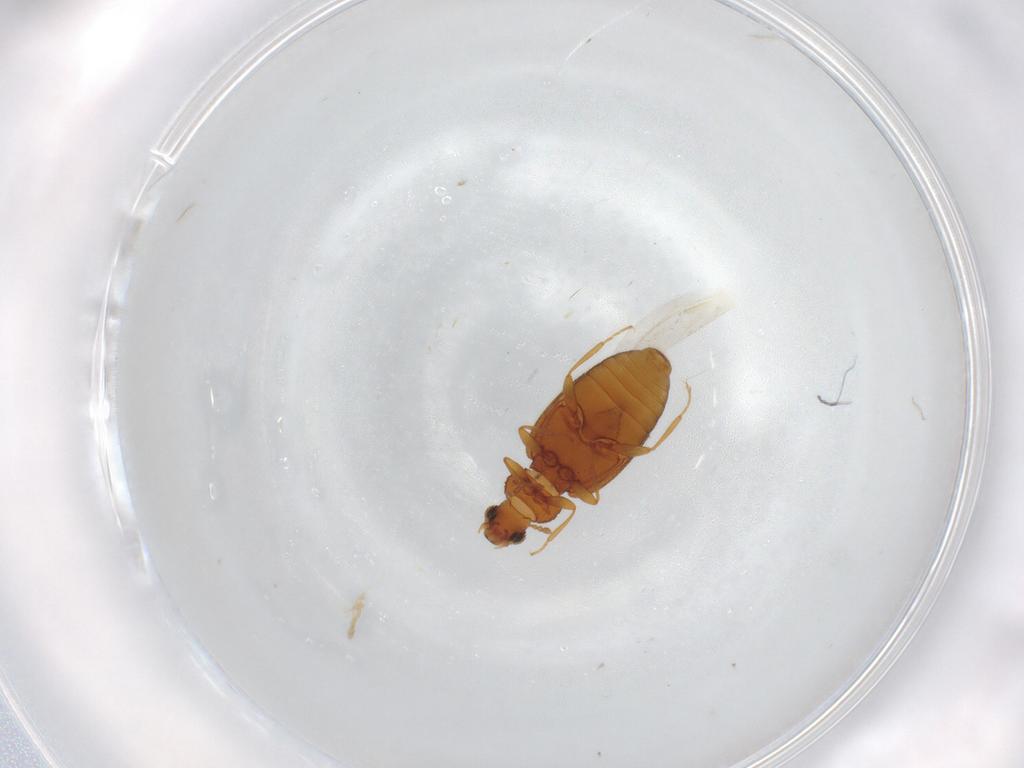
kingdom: Animalia
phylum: Arthropoda
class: Insecta
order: Coleoptera
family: Latridiidae
